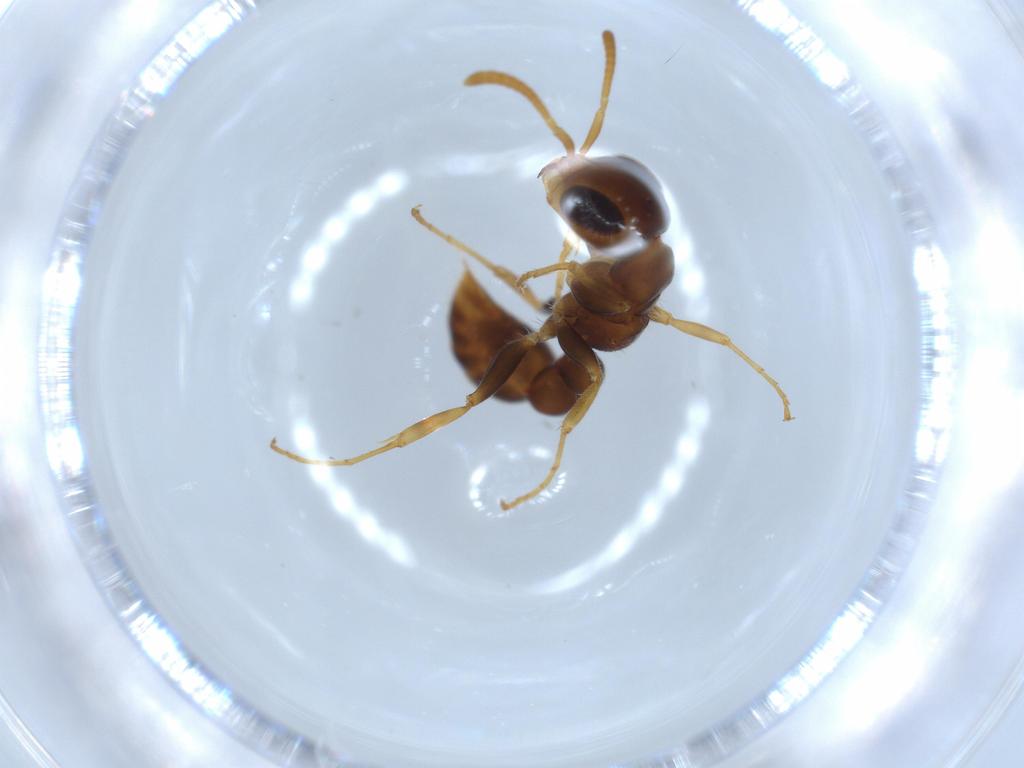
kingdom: Animalia
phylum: Arthropoda
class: Insecta
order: Hymenoptera
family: Formicidae
